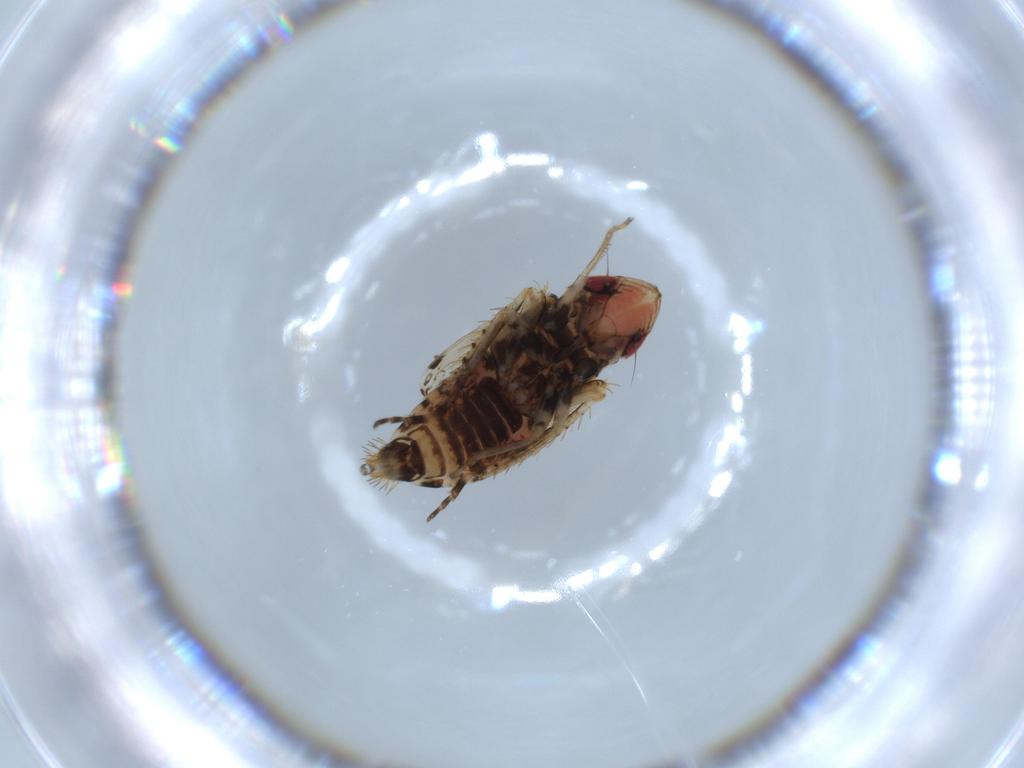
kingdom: Animalia
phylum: Arthropoda
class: Insecta
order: Hemiptera
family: Cicadellidae
